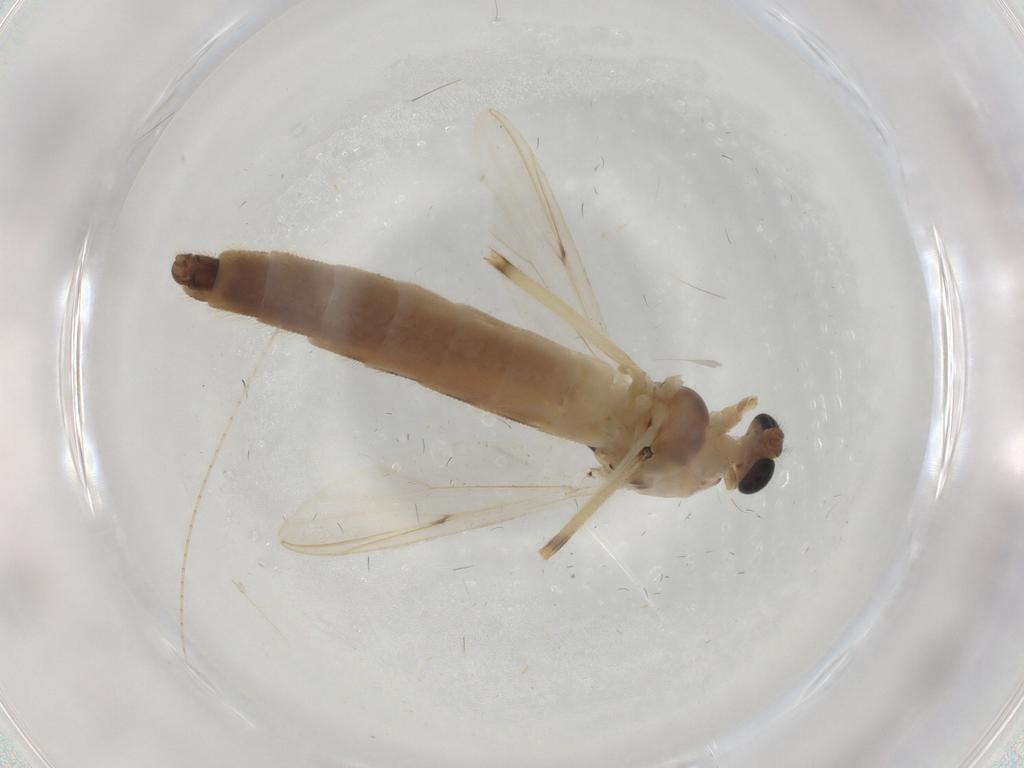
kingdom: Animalia
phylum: Arthropoda
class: Insecta
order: Diptera
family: Chironomidae
